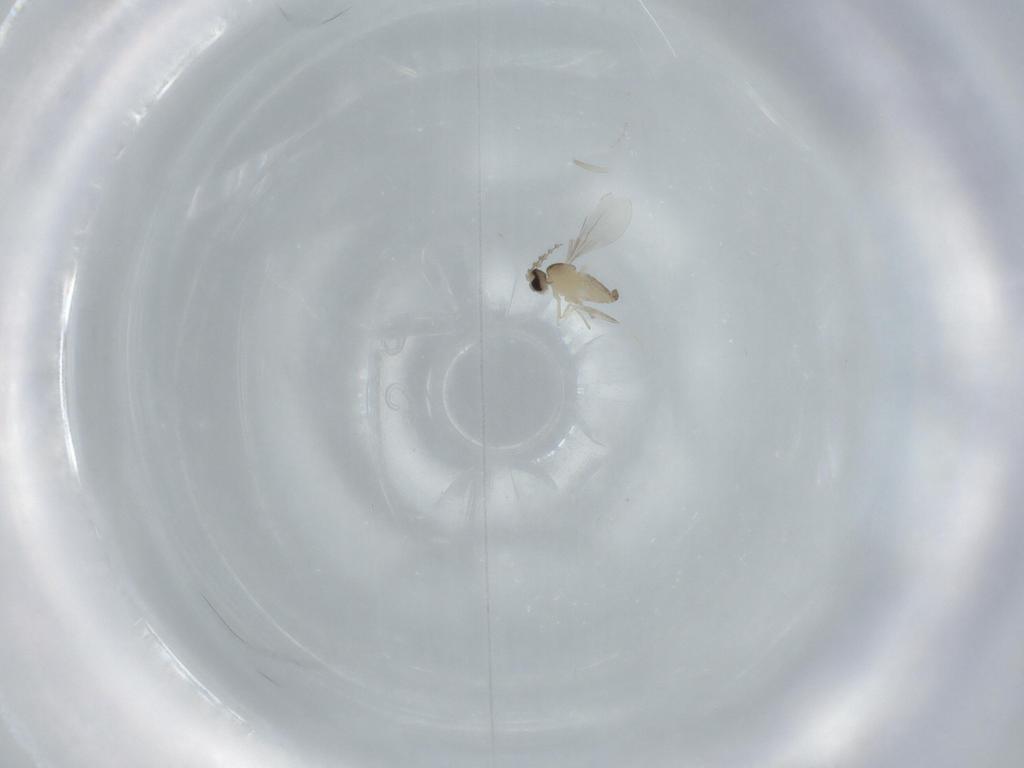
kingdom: Animalia
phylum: Arthropoda
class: Insecta
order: Diptera
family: Cecidomyiidae
